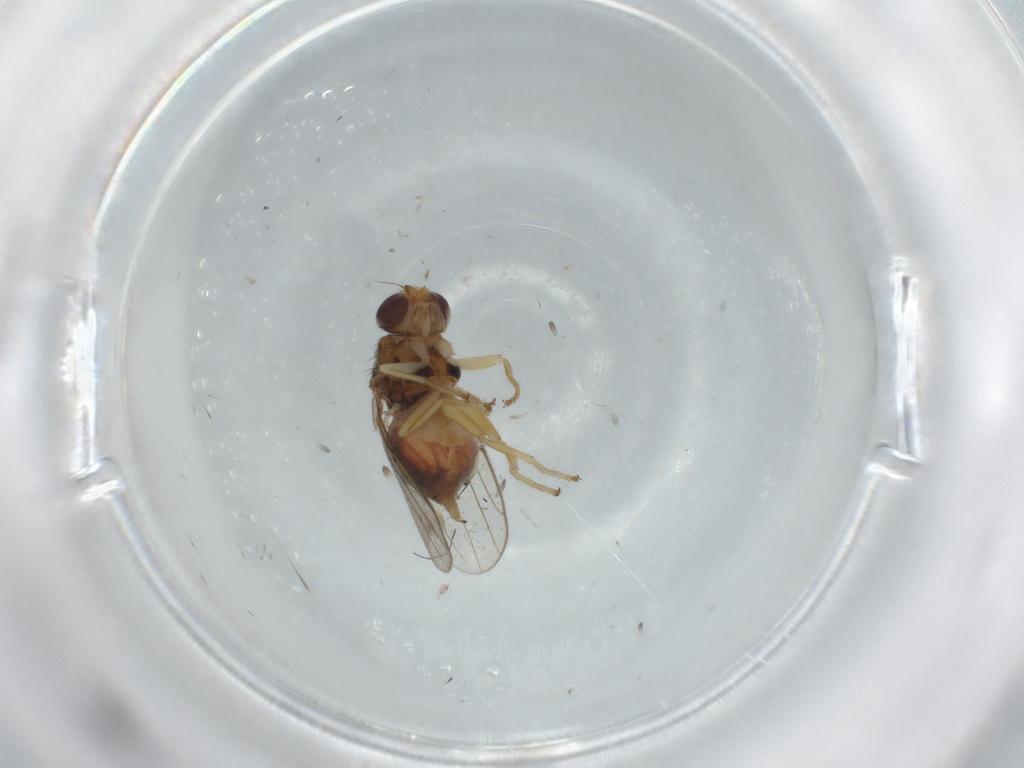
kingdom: Animalia
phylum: Arthropoda
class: Insecta
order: Diptera
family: Chloropidae
